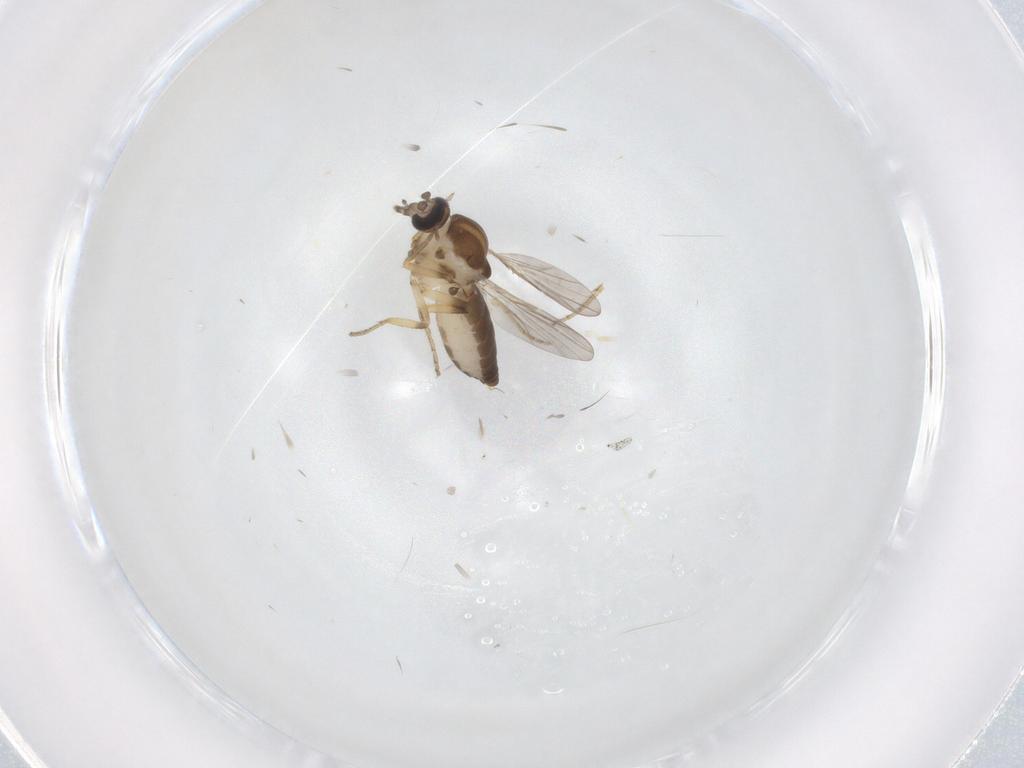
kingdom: Animalia
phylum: Arthropoda
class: Insecta
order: Diptera
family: Ceratopogonidae
